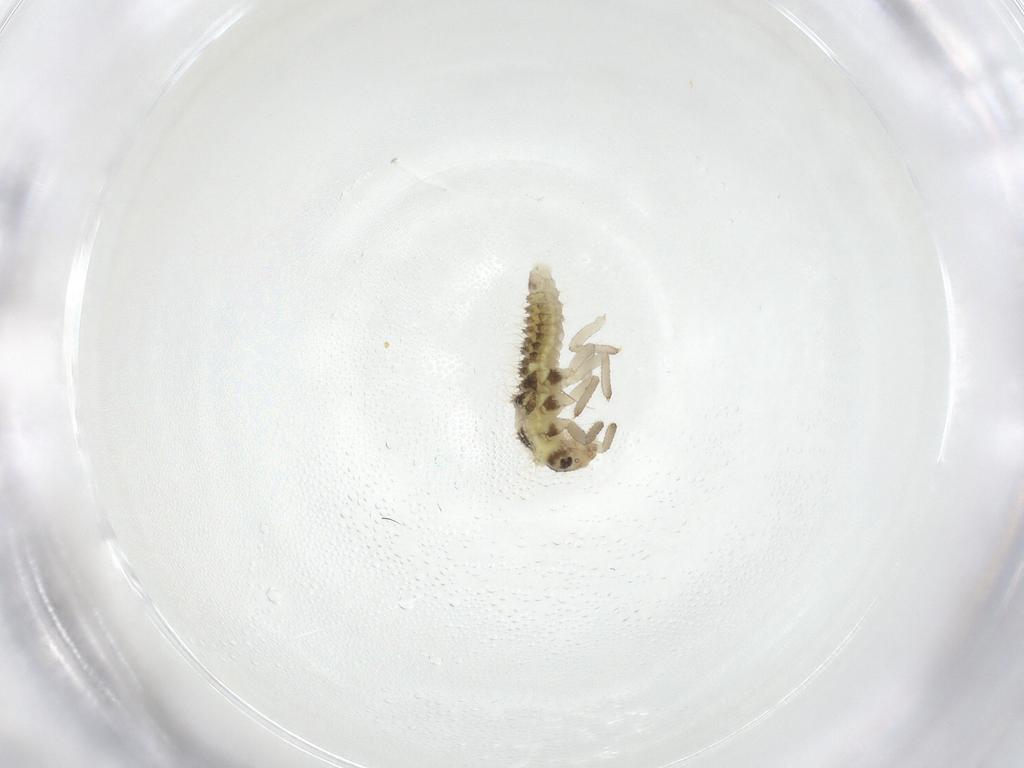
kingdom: Animalia
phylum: Arthropoda
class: Insecta
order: Coleoptera
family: Coccinellidae
